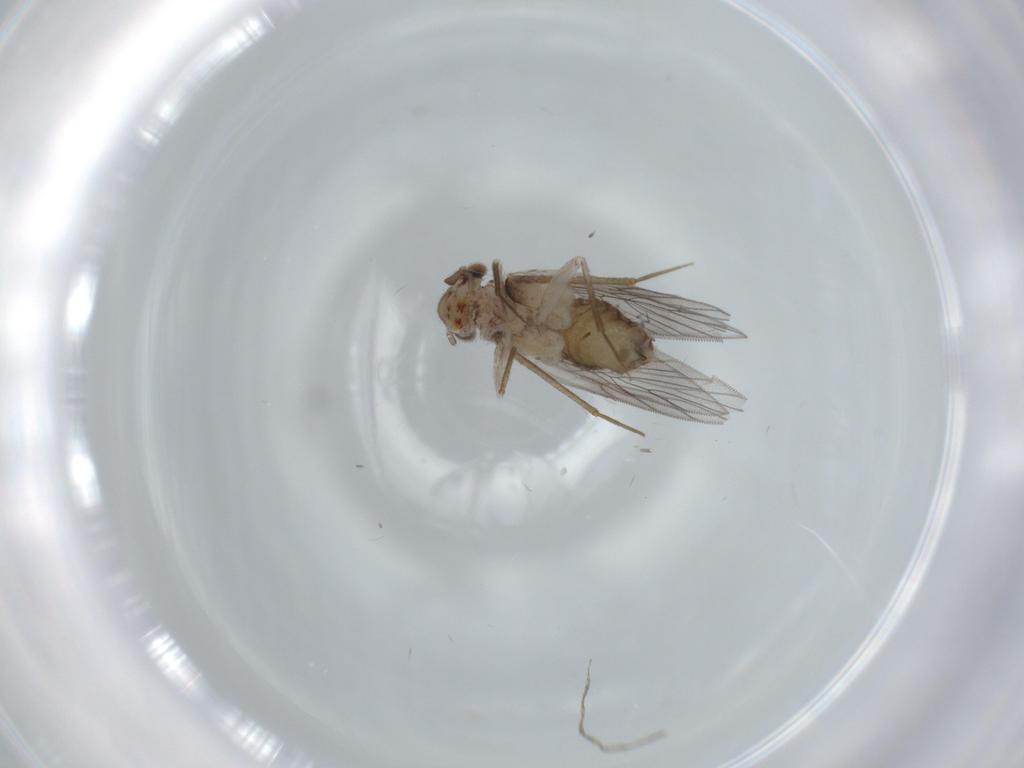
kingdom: Animalia
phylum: Arthropoda
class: Insecta
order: Psocodea
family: Lepidopsocidae
